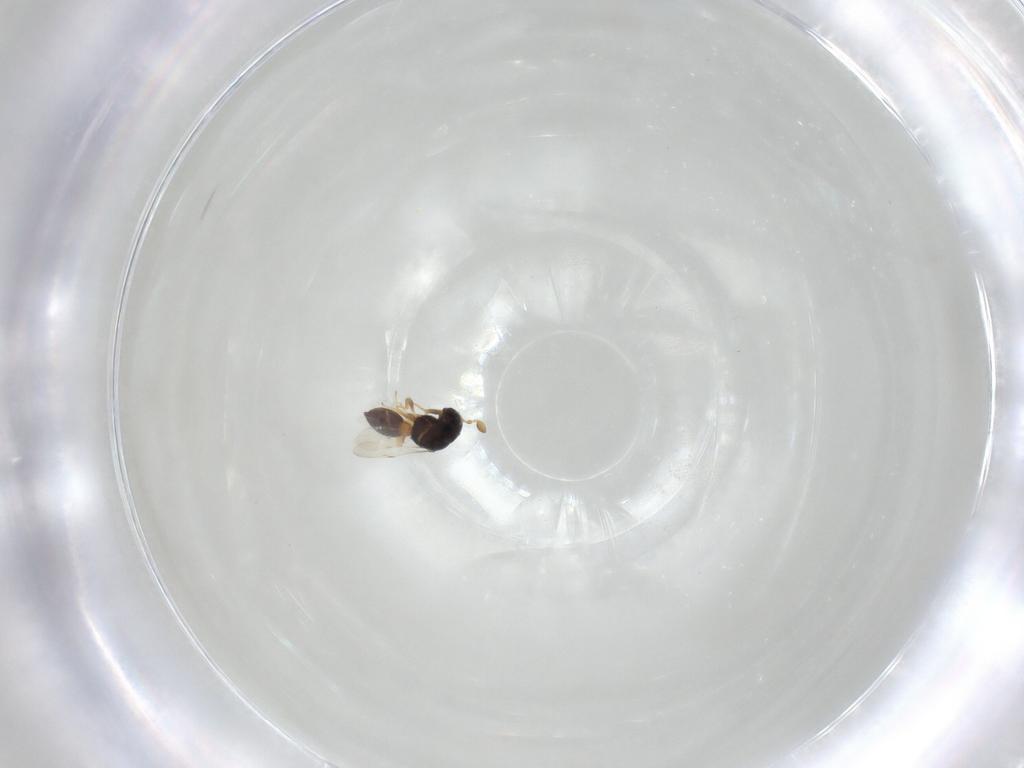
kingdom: Animalia
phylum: Arthropoda
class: Insecta
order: Hymenoptera
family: Scelionidae
